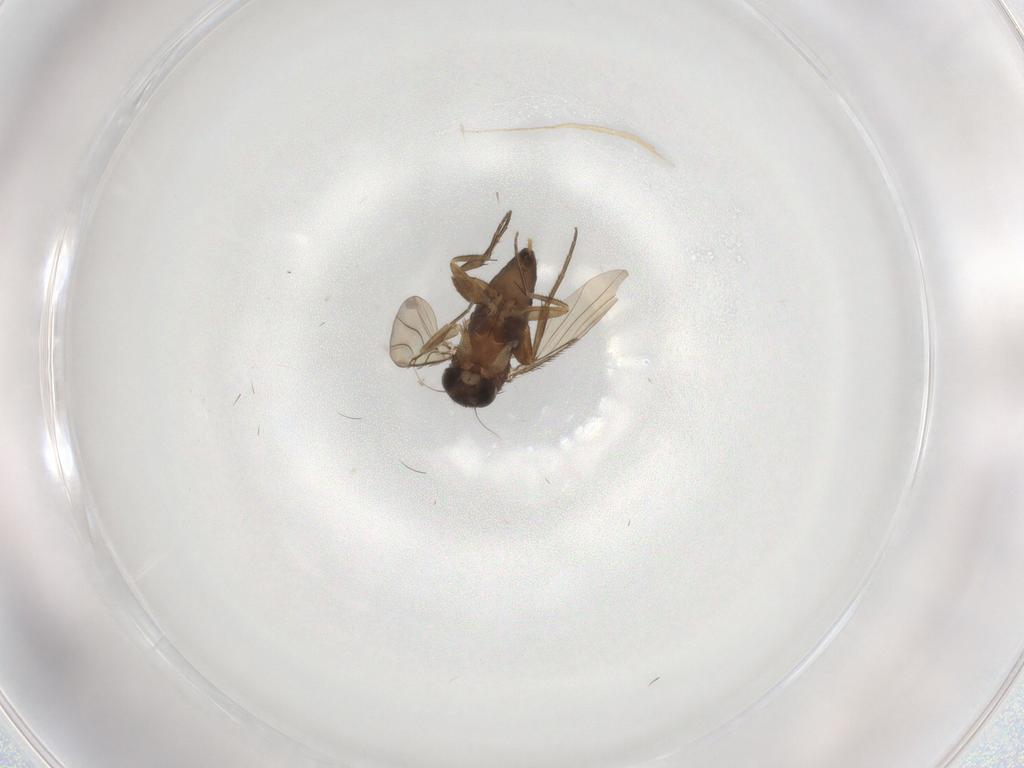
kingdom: Animalia
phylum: Arthropoda
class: Insecta
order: Diptera
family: Phoridae
